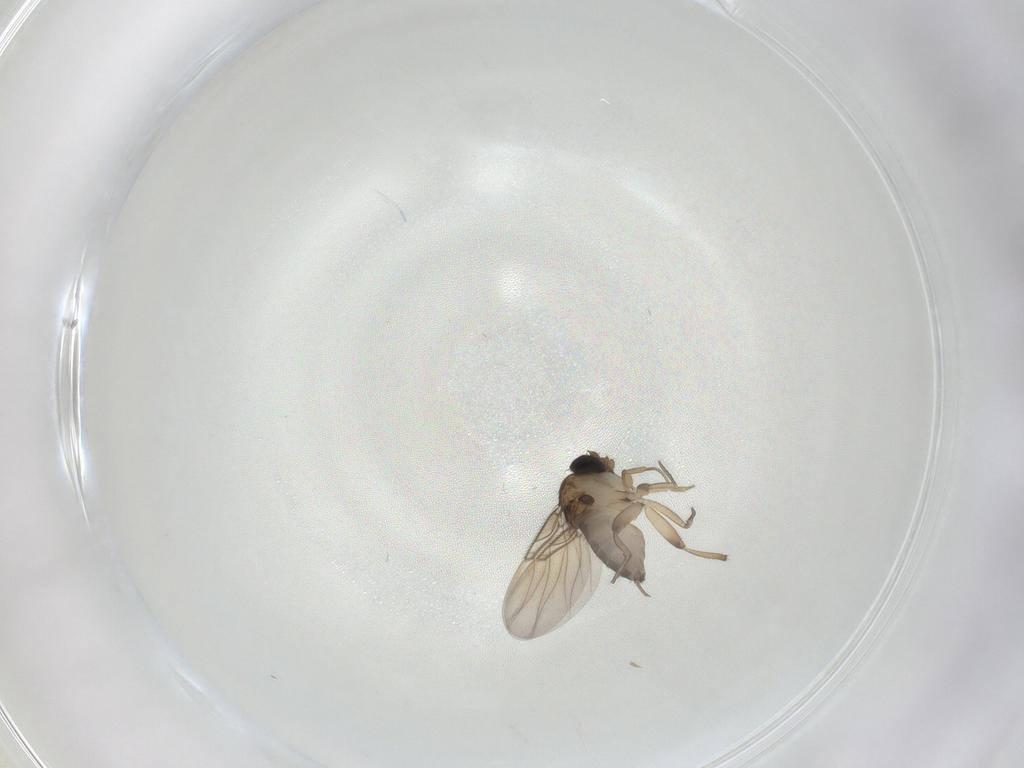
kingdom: Animalia
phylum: Arthropoda
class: Insecta
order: Diptera
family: Phoridae
